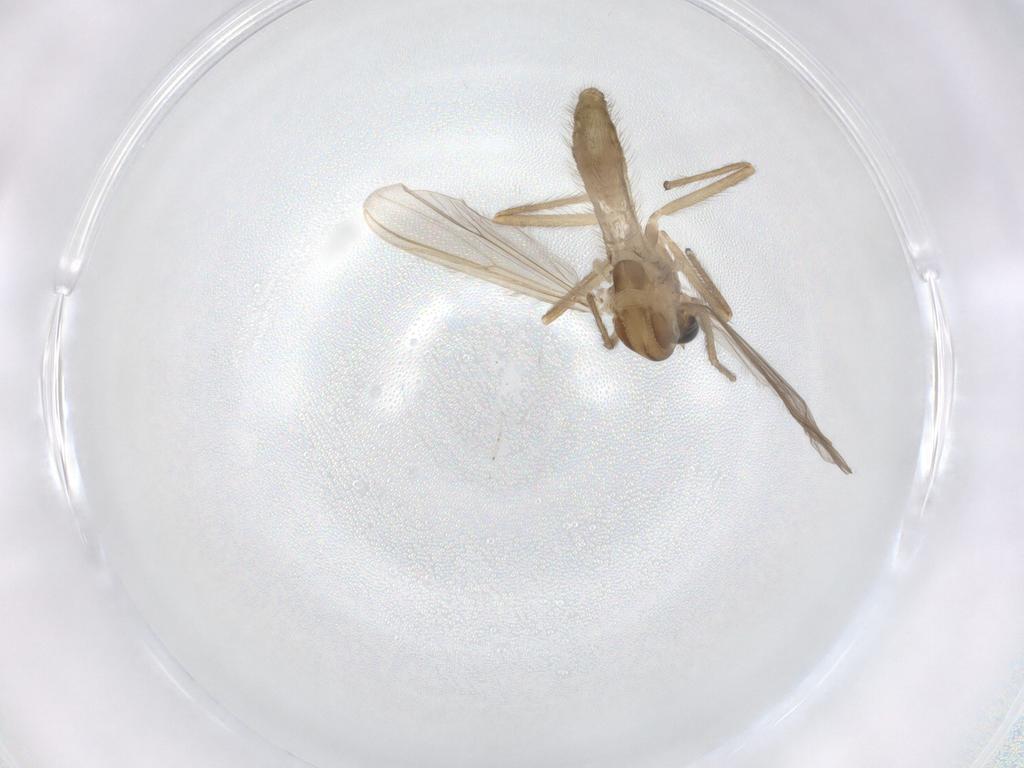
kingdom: Animalia
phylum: Arthropoda
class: Insecta
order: Diptera
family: Chironomidae
